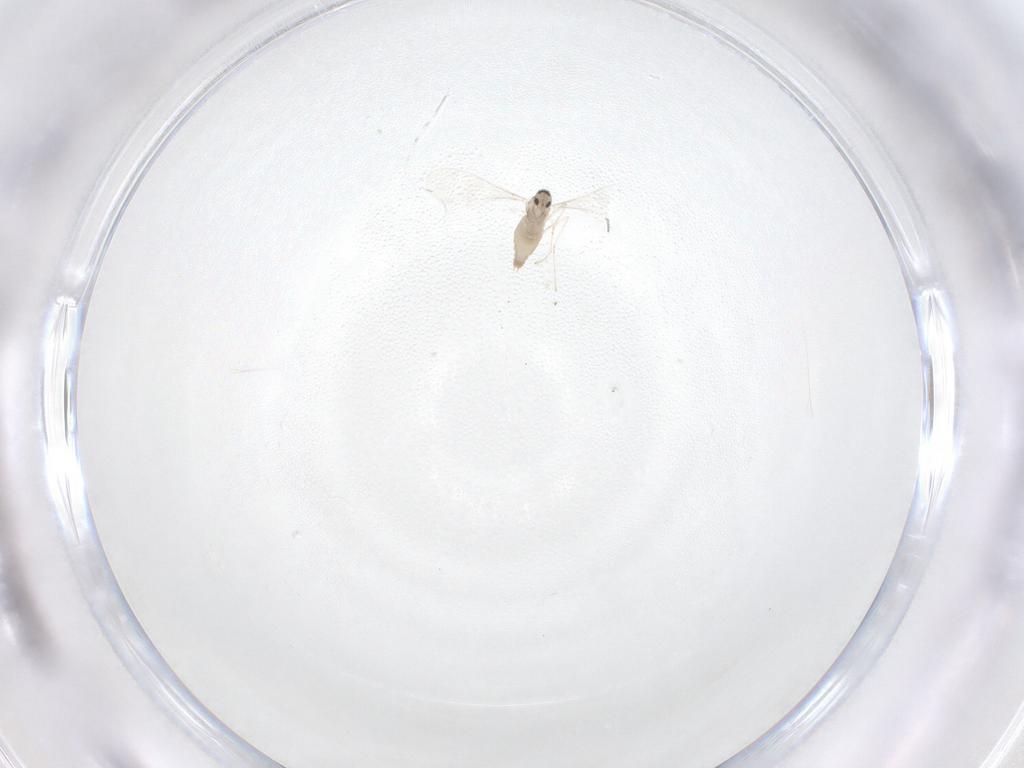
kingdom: Animalia
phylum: Arthropoda
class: Insecta
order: Diptera
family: Cecidomyiidae
